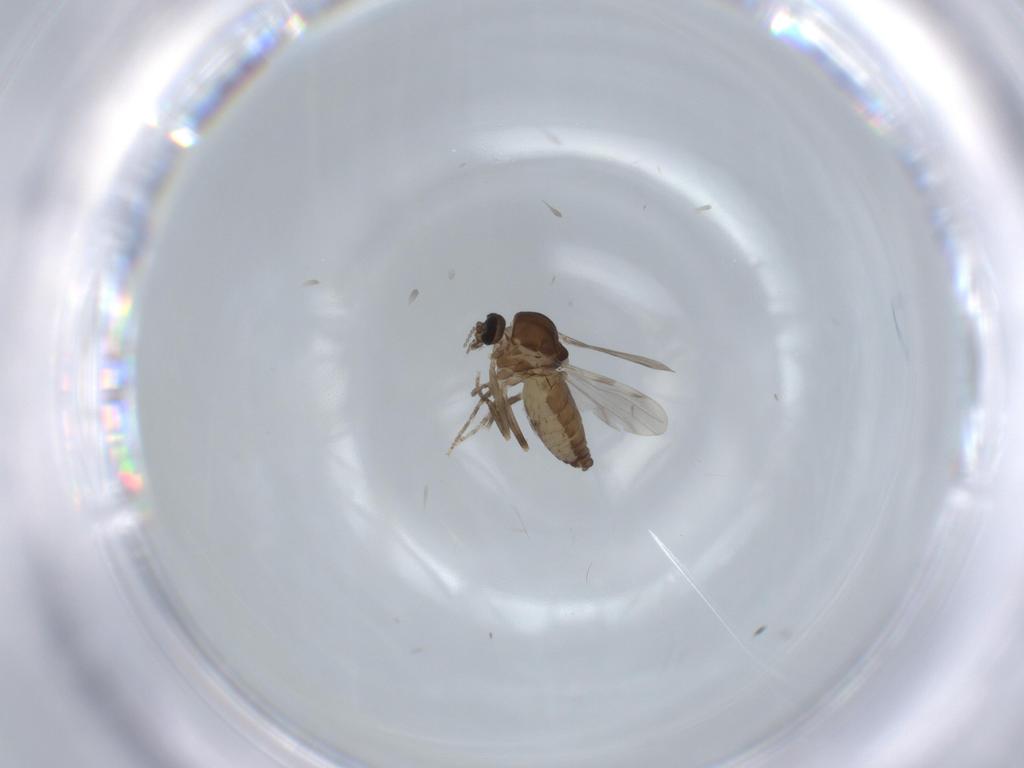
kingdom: Animalia
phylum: Arthropoda
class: Insecta
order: Diptera
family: Ceratopogonidae
